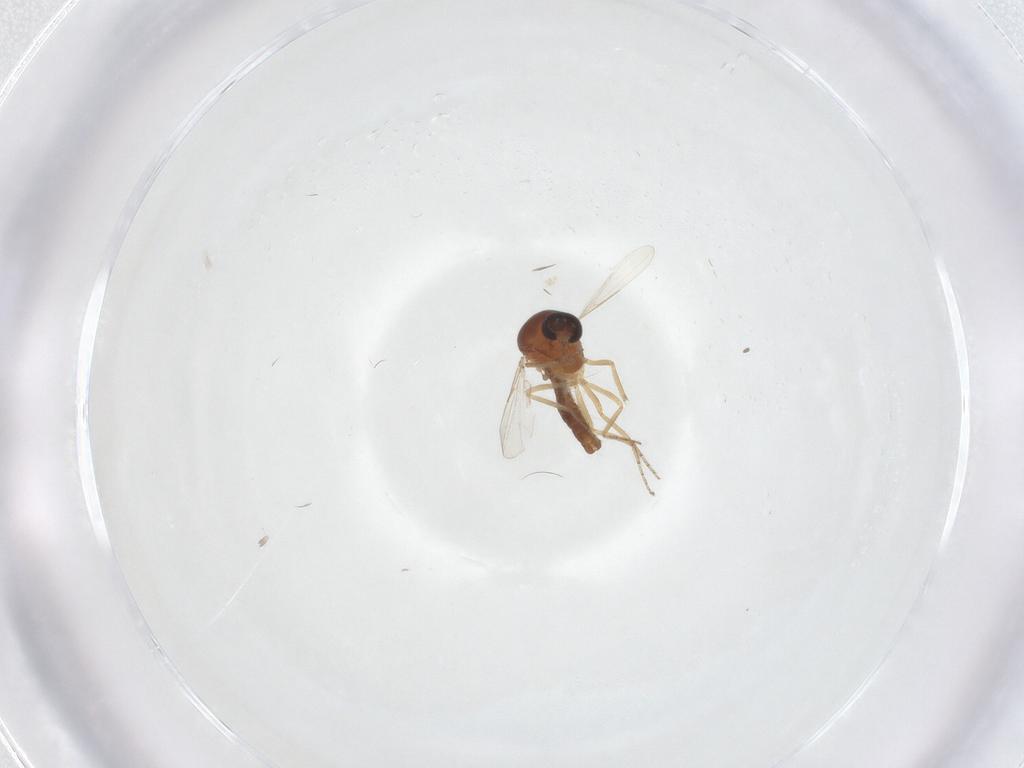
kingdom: Animalia
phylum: Arthropoda
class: Insecta
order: Diptera
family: Ceratopogonidae
